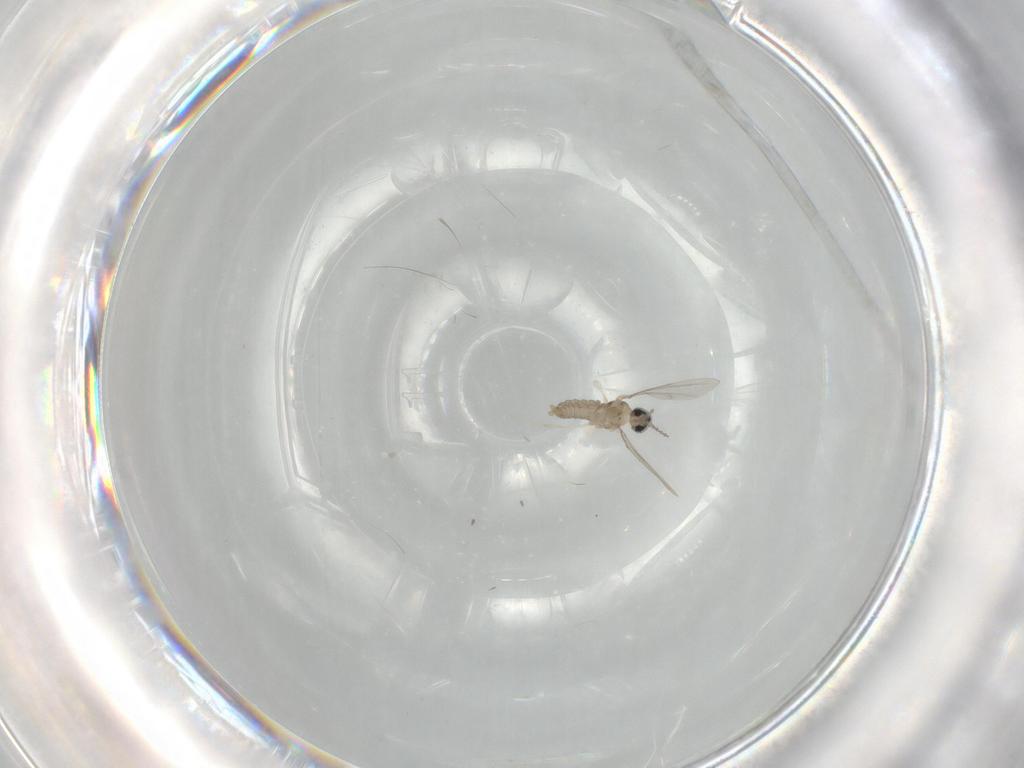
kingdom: Animalia
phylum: Arthropoda
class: Insecta
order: Diptera
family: Cecidomyiidae
